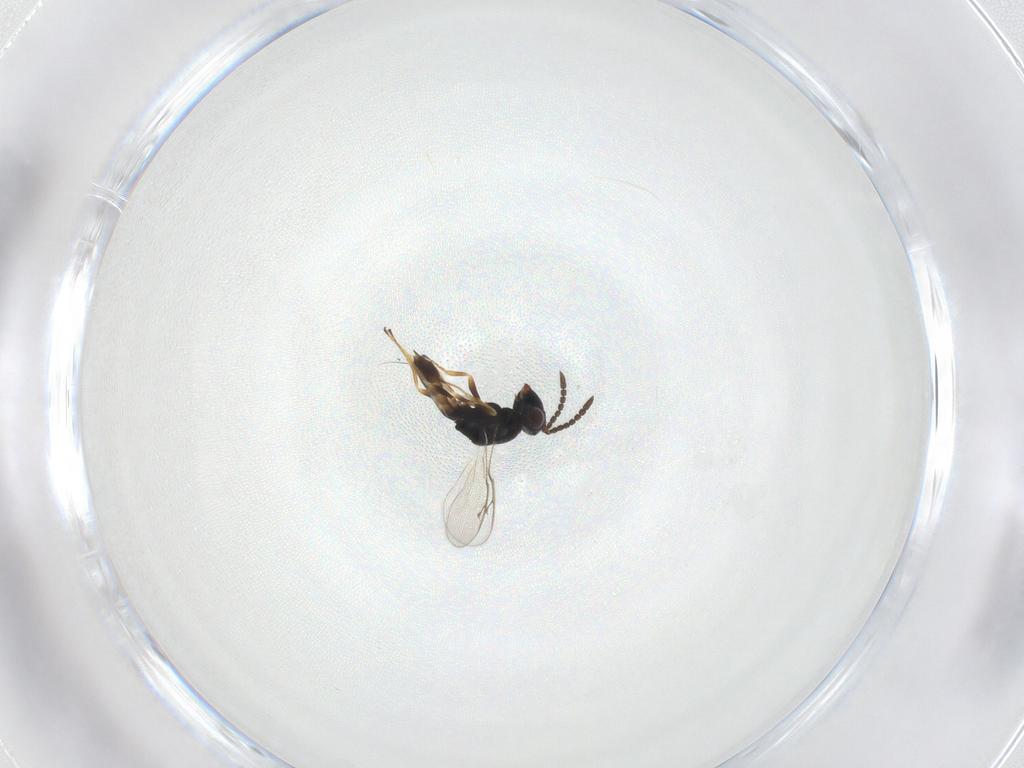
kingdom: Animalia
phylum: Arthropoda
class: Insecta
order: Hymenoptera
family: Pteromalidae
